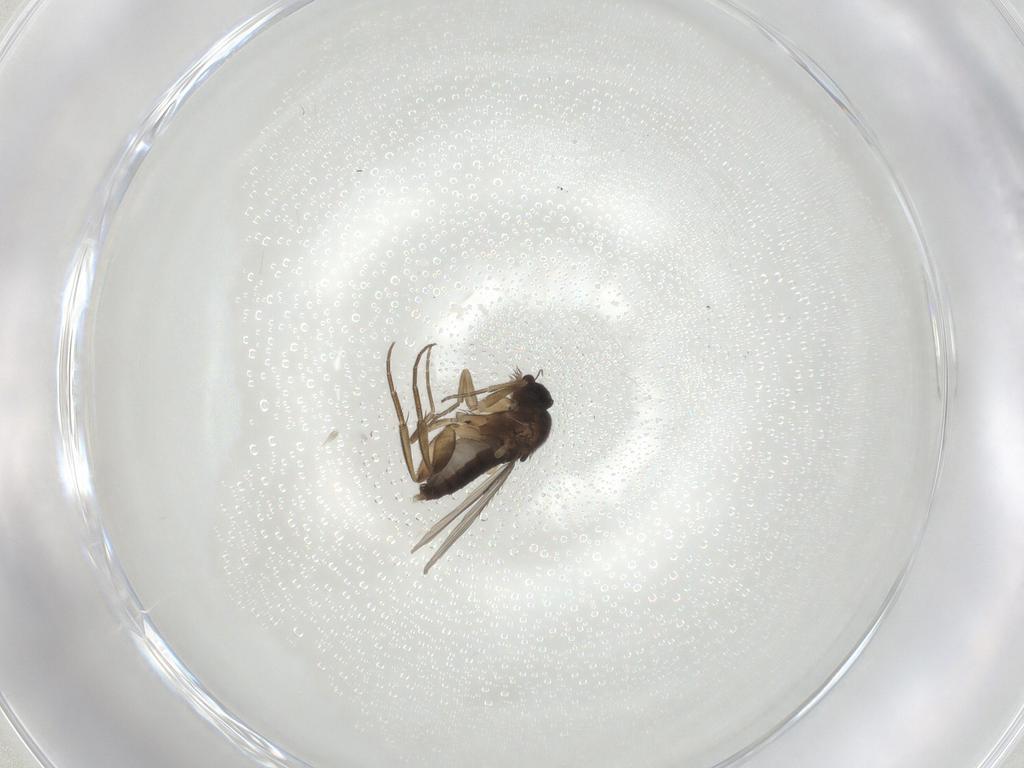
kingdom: Animalia
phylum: Arthropoda
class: Insecta
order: Diptera
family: Phoridae
